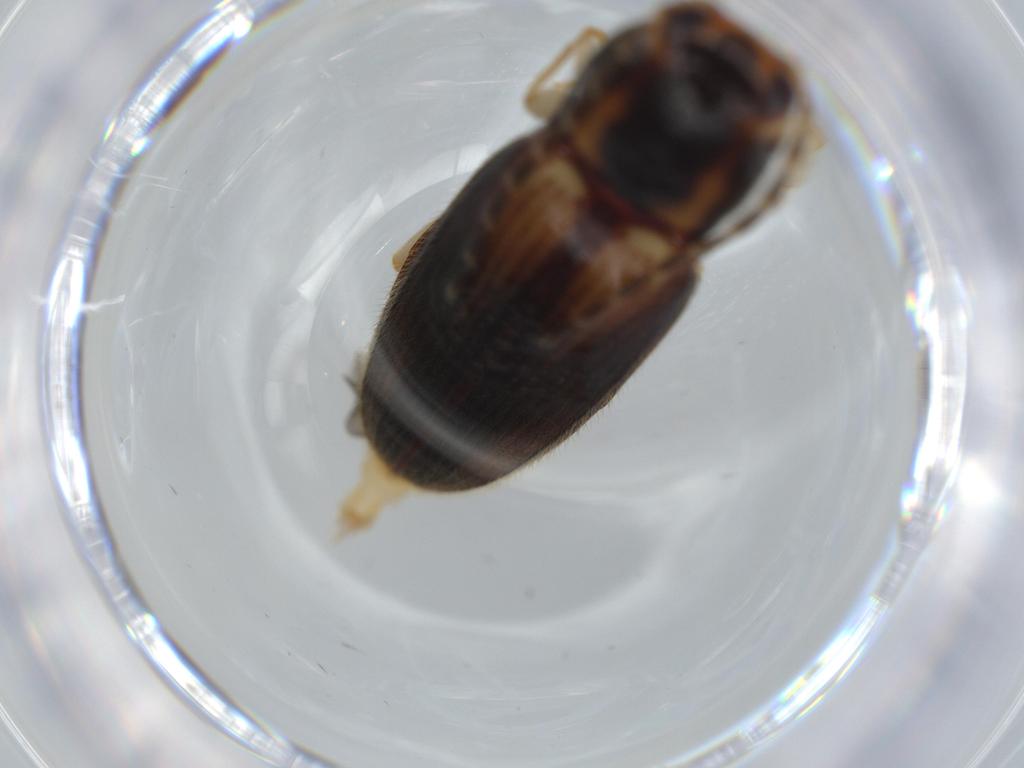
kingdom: Animalia
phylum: Arthropoda
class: Insecta
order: Coleoptera
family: Elateridae
